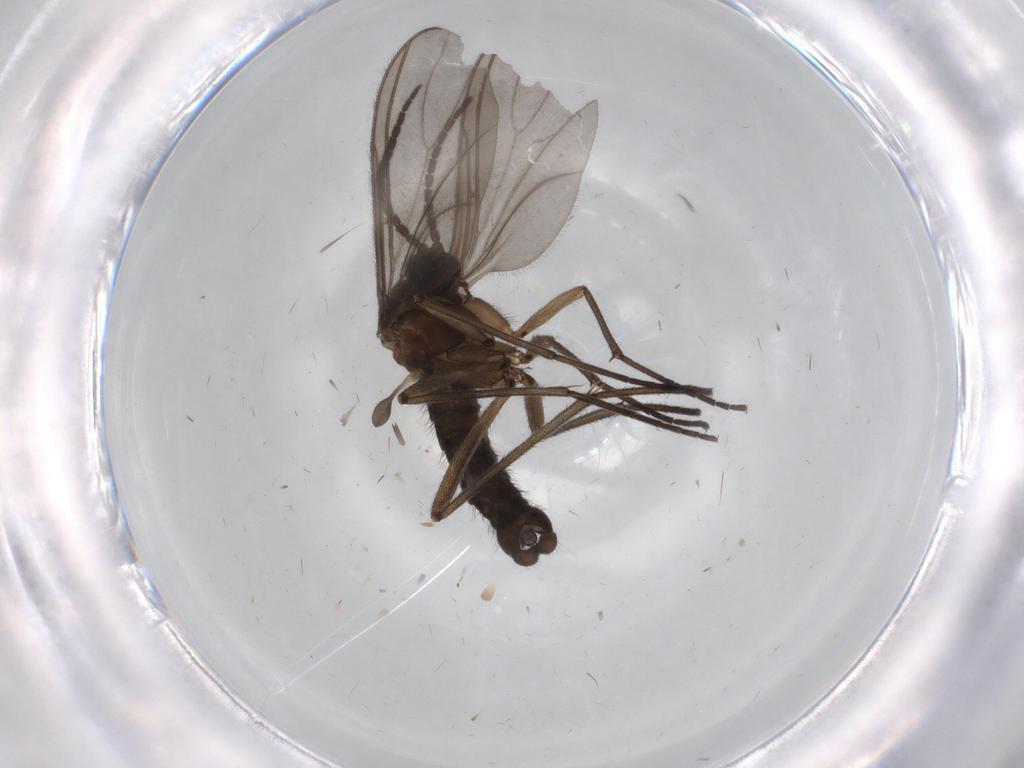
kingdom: Animalia
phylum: Arthropoda
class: Insecta
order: Diptera
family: Sciaridae
